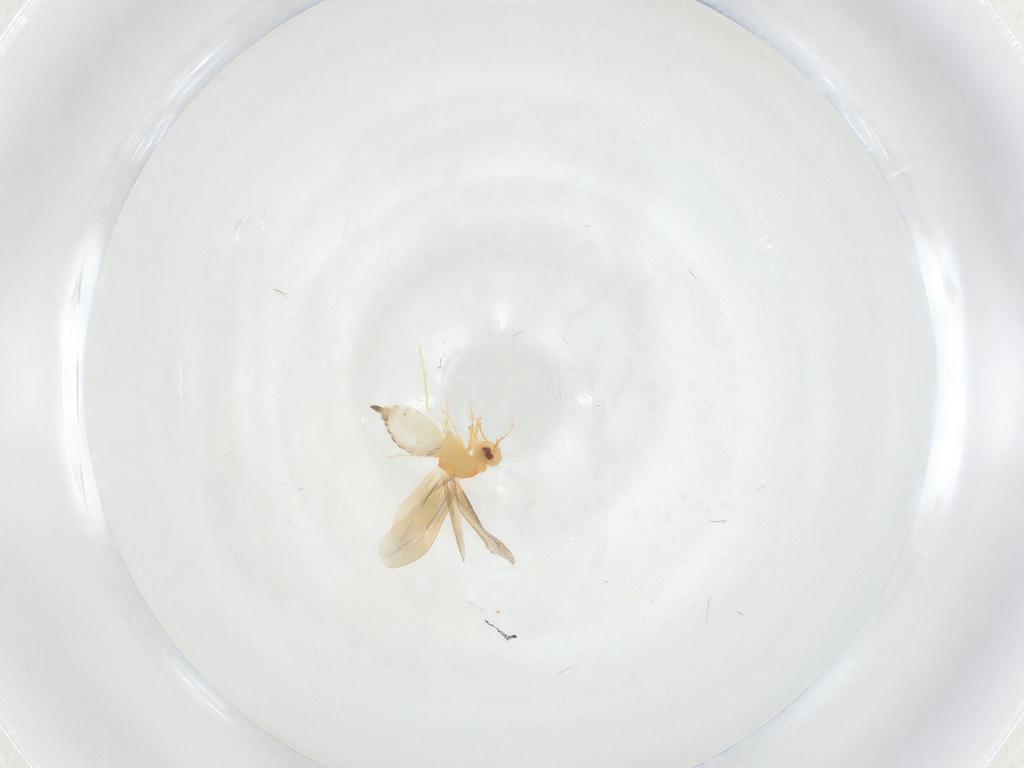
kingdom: Animalia
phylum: Arthropoda
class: Insecta
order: Hemiptera
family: Aleyrodidae
